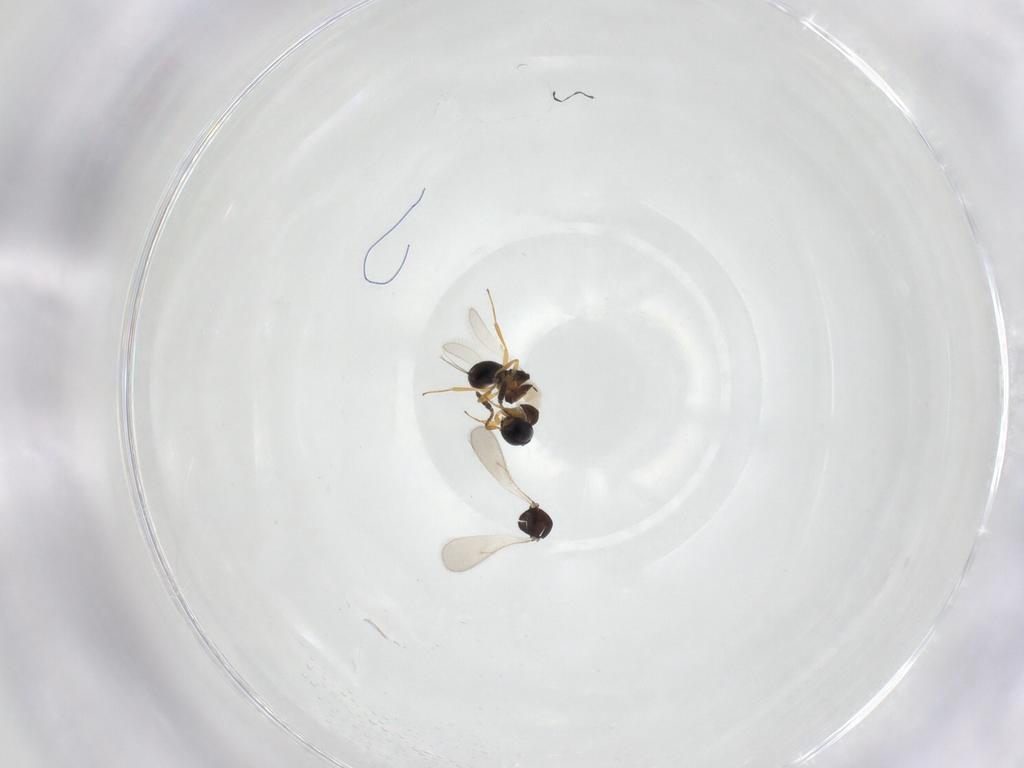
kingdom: Animalia
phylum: Arthropoda
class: Insecta
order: Hymenoptera
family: Scelionidae
